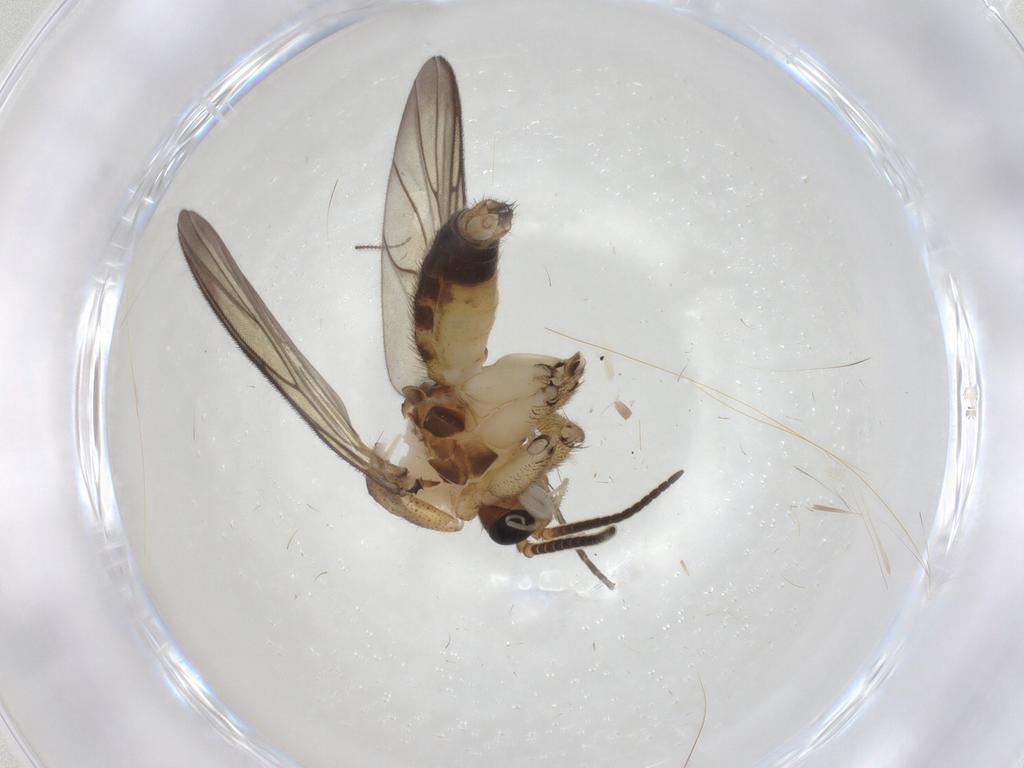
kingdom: Animalia
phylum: Arthropoda
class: Insecta
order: Diptera
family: Mycetophilidae
